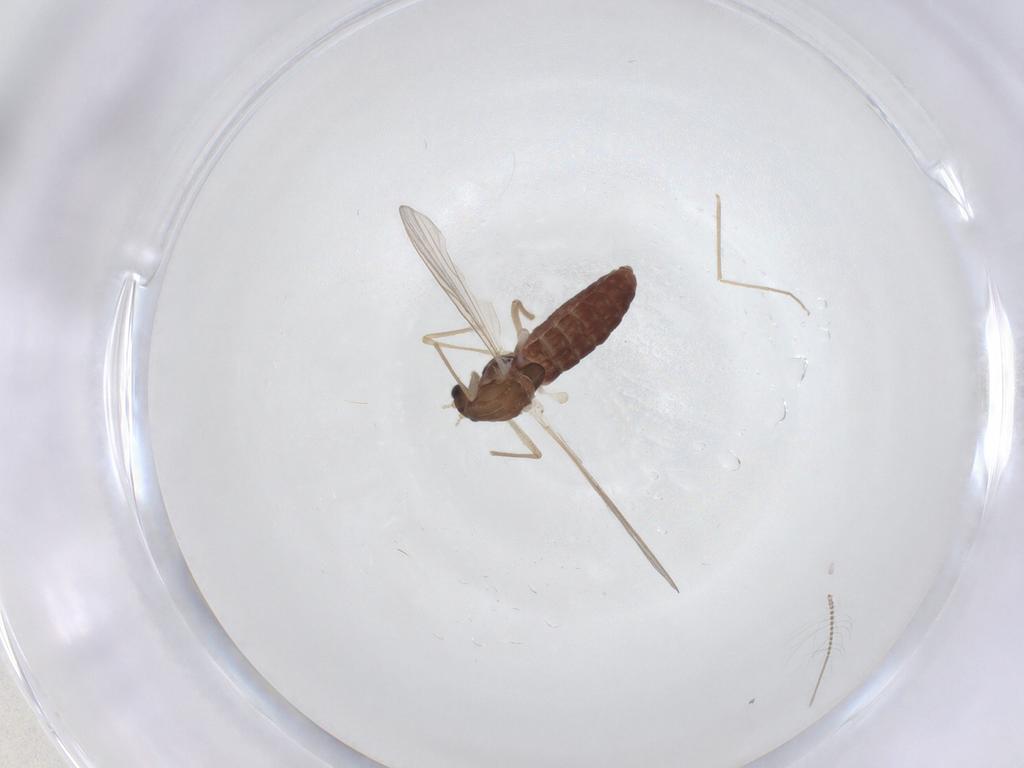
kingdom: Animalia
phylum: Arthropoda
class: Insecta
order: Diptera
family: Chironomidae
